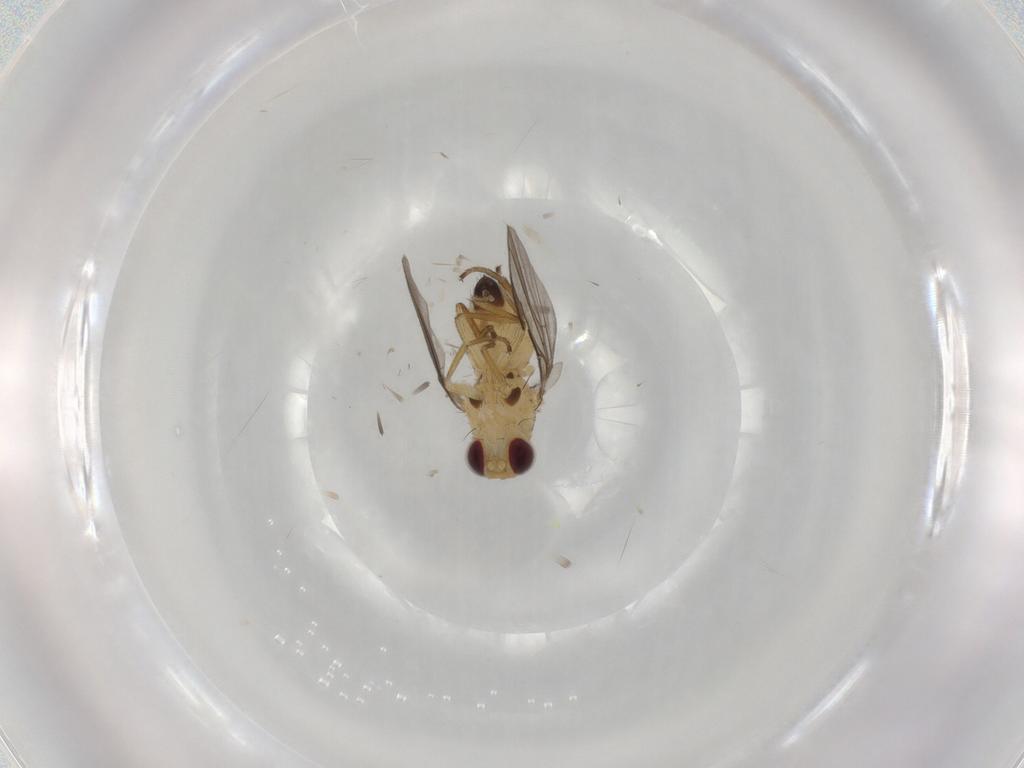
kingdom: Animalia
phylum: Arthropoda
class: Insecta
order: Diptera
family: Agromyzidae
